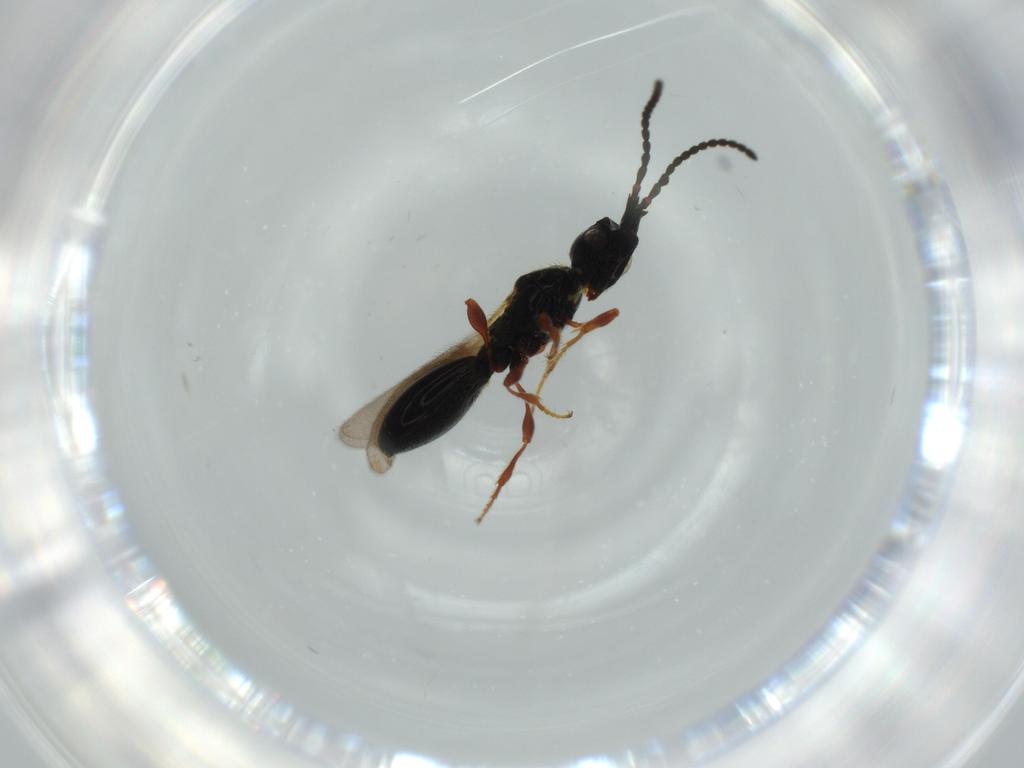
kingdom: Animalia
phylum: Arthropoda
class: Insecta
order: Hymenoptera
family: Diapriidae
